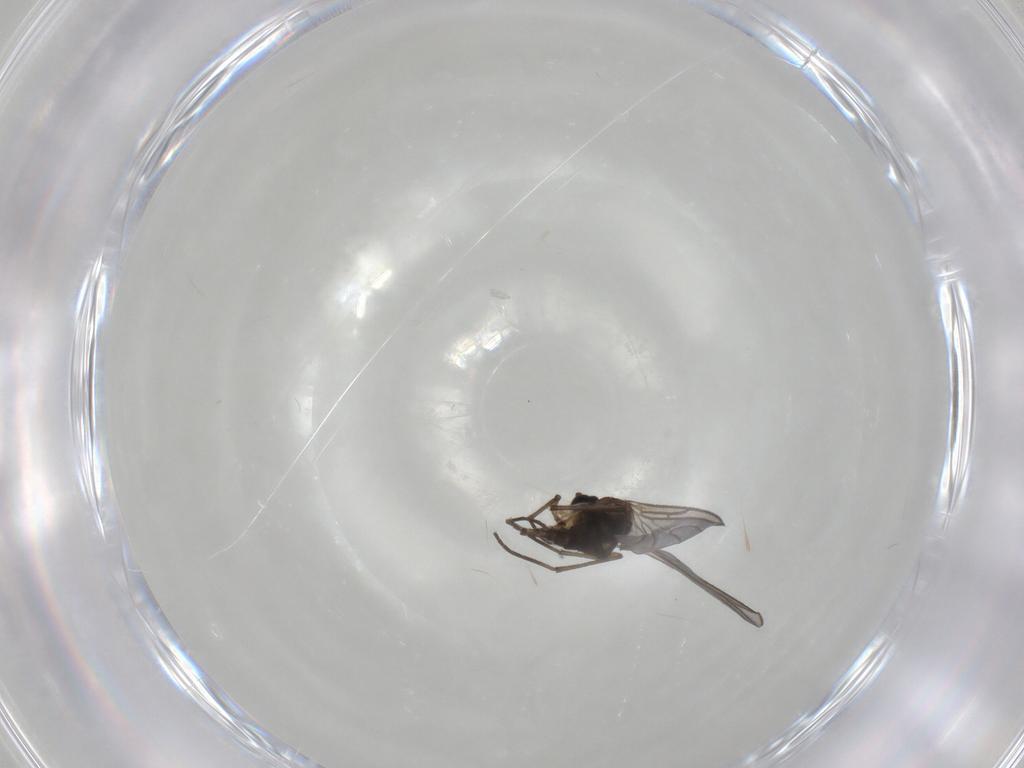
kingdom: Animalia
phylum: Arthropoda
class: Insecta
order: Diptera
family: Sciaridae
